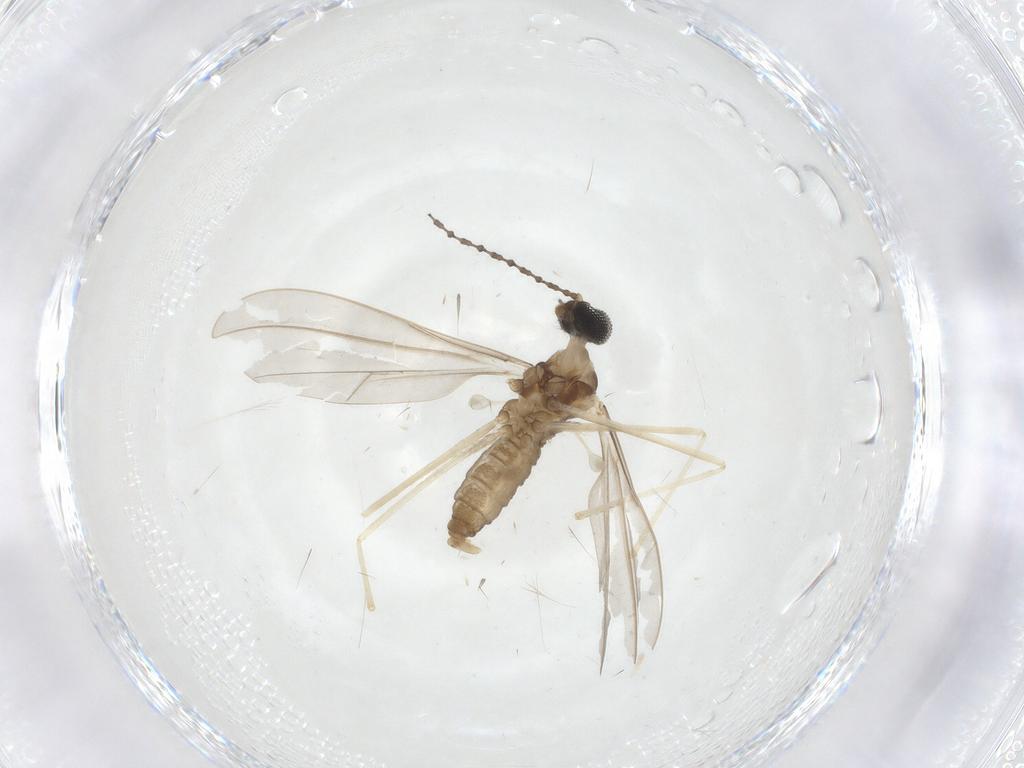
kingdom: Animalia
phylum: Arthropoda
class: Insecta
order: Diptera
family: Cecidomyiidae
